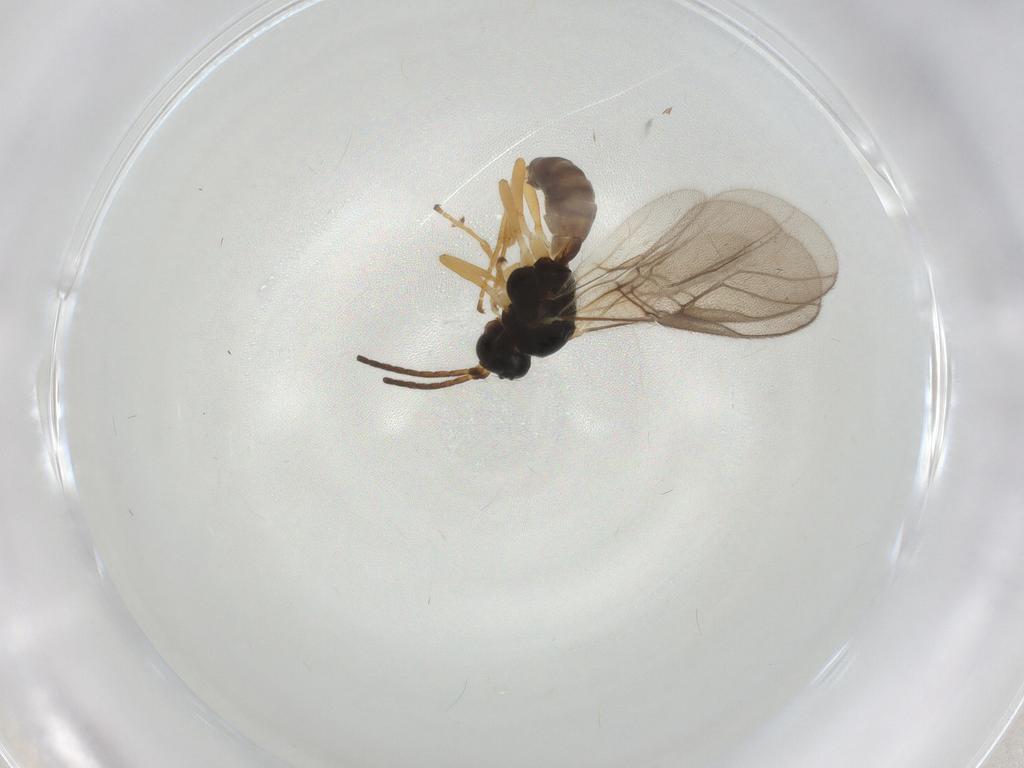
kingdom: Animalia
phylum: Arthropoda
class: Insecta
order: Hymenoptera
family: Braconidae
